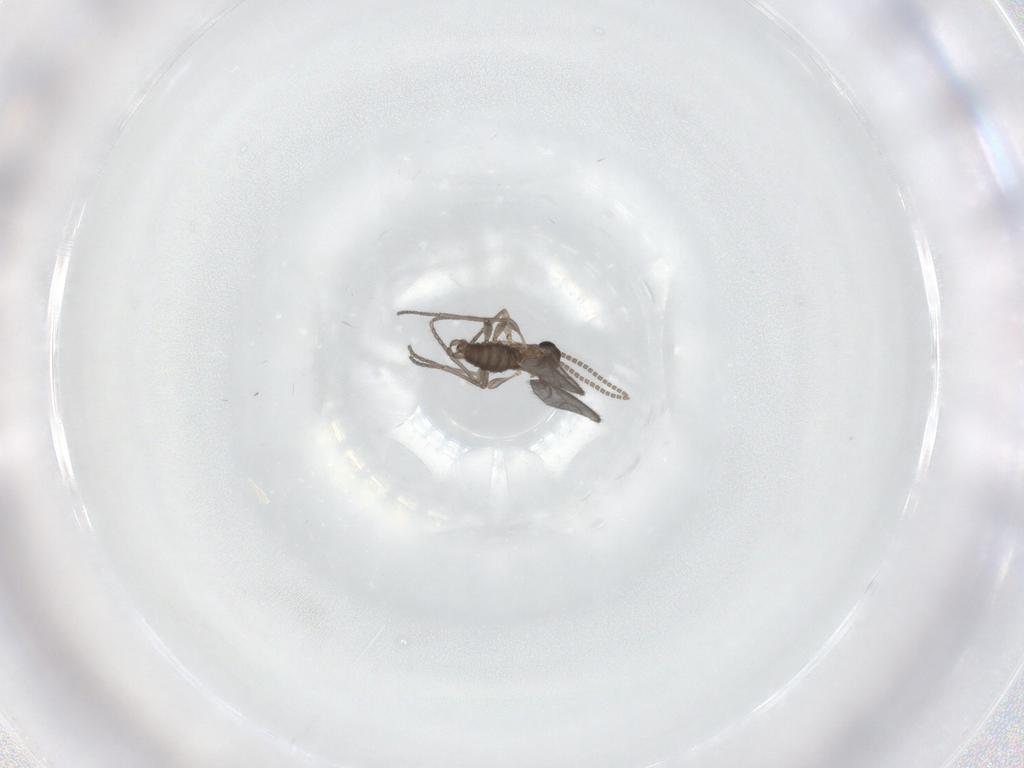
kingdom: Animalia
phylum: Arthropoda
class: Insecta
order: Diptera
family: Sciaridae
